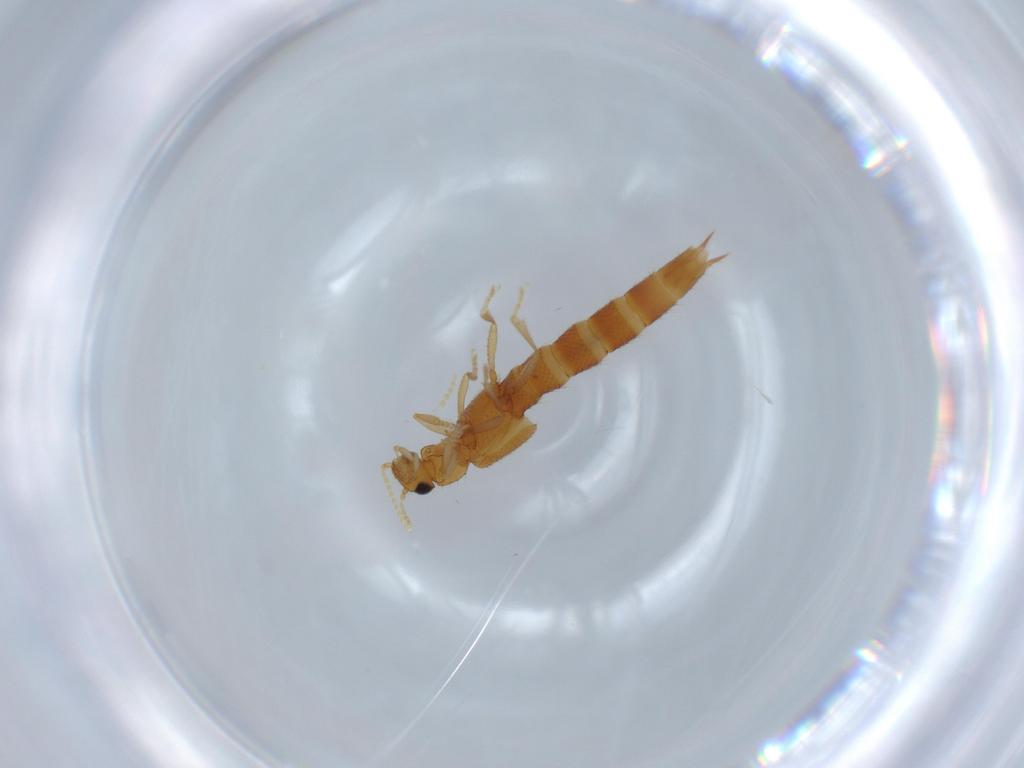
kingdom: Animalia
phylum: Arthropoda
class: Insecta
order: Coleoptera
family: Staphylinidae
